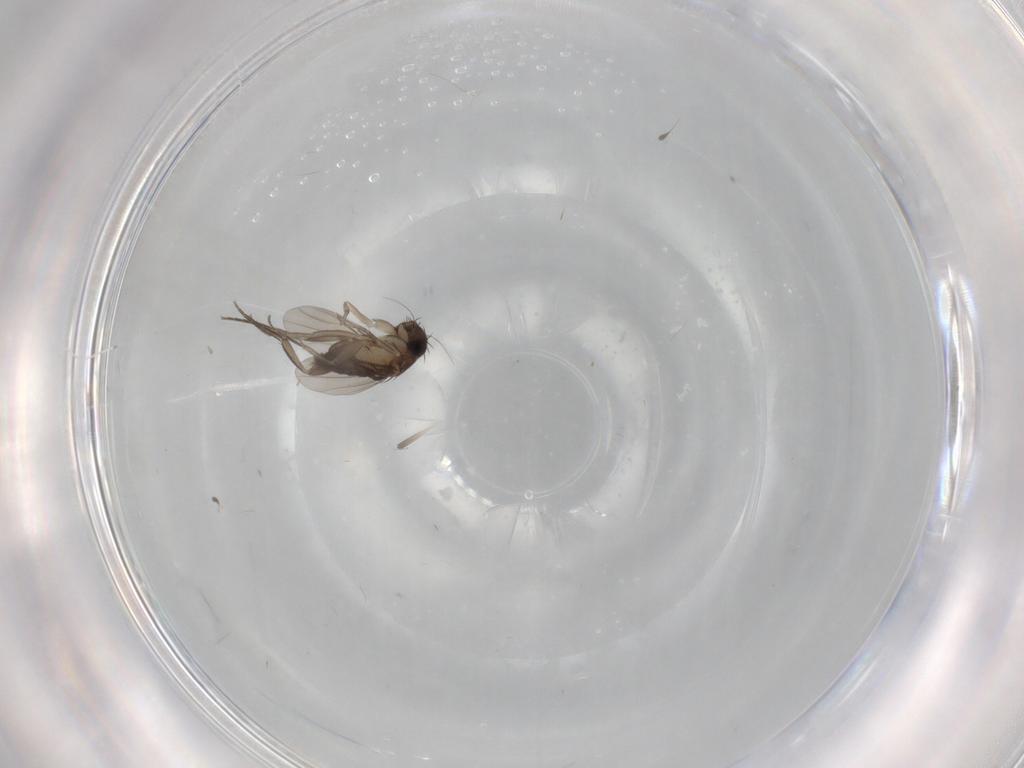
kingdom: Animalia
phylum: Arthropoda
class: Insecta
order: Diptera
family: Phoridae
